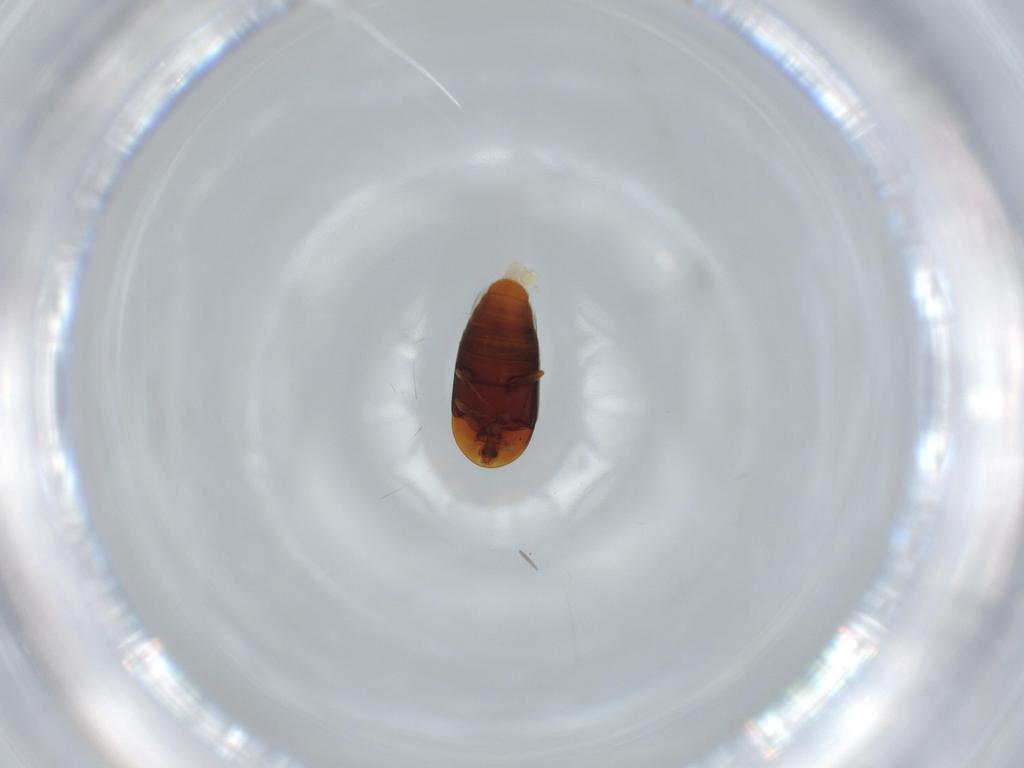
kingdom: Animalia
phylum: Arthropoda
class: Insecta
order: Coleoptera
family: Corylophidae
